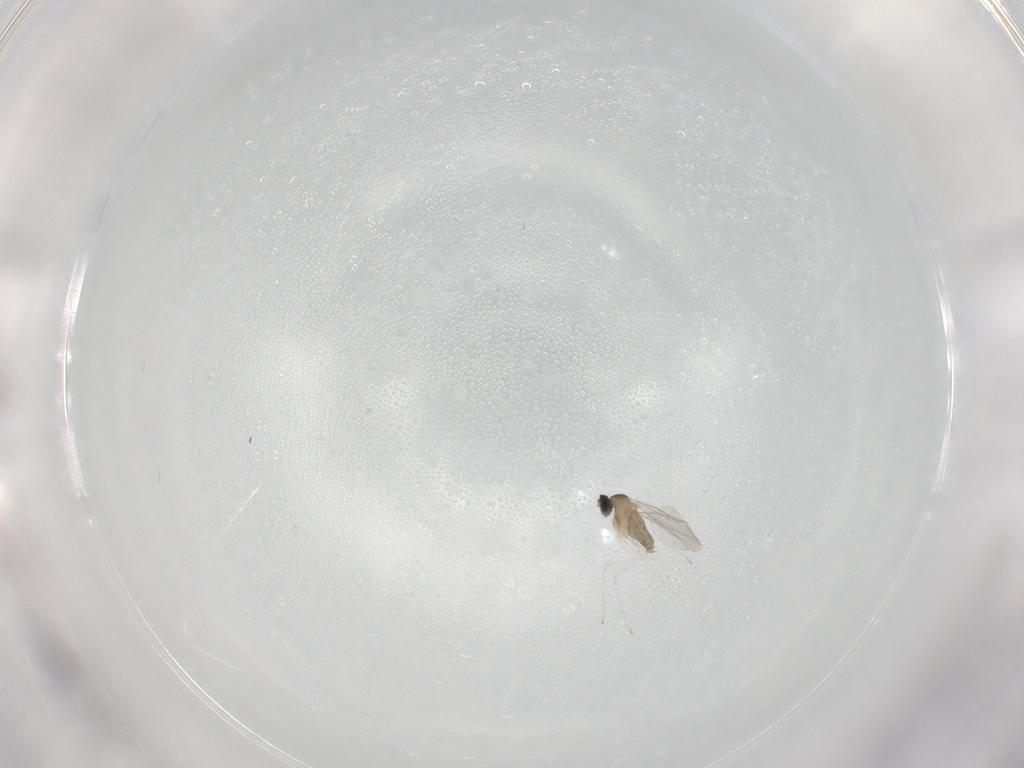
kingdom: Animalia
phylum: Arthropoda
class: Insecta
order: Diptera
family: Cecidomyiidae
